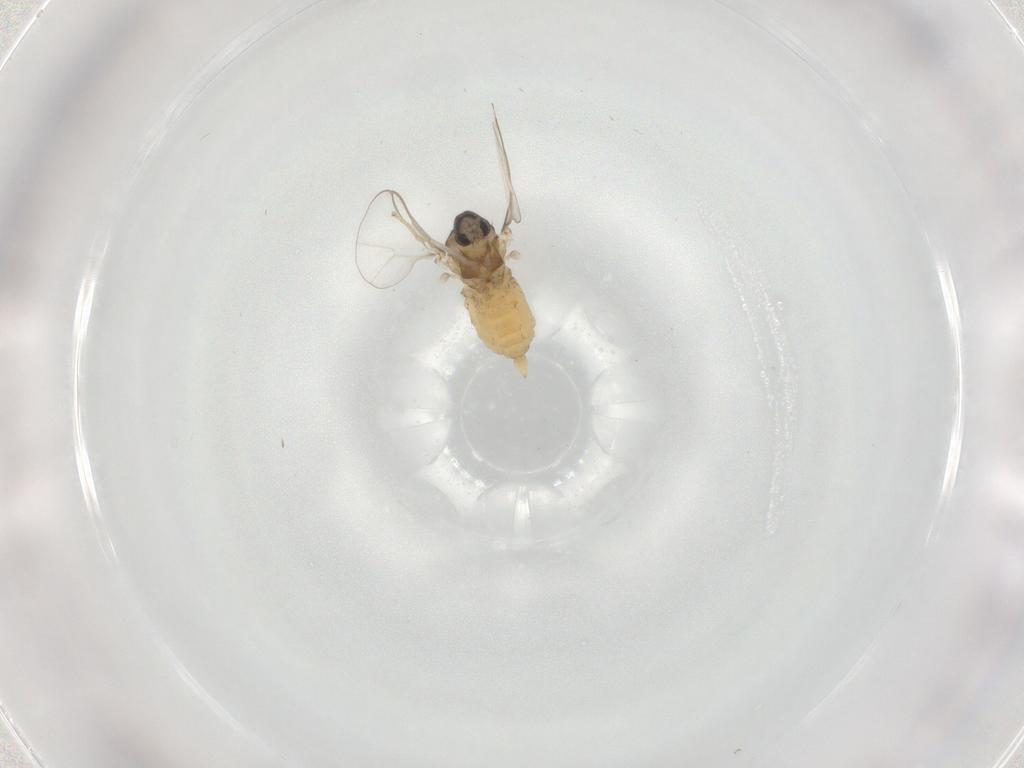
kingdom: Animalia
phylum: Arthropoda
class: Insecta
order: Diptera
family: Cecidomyiidae
